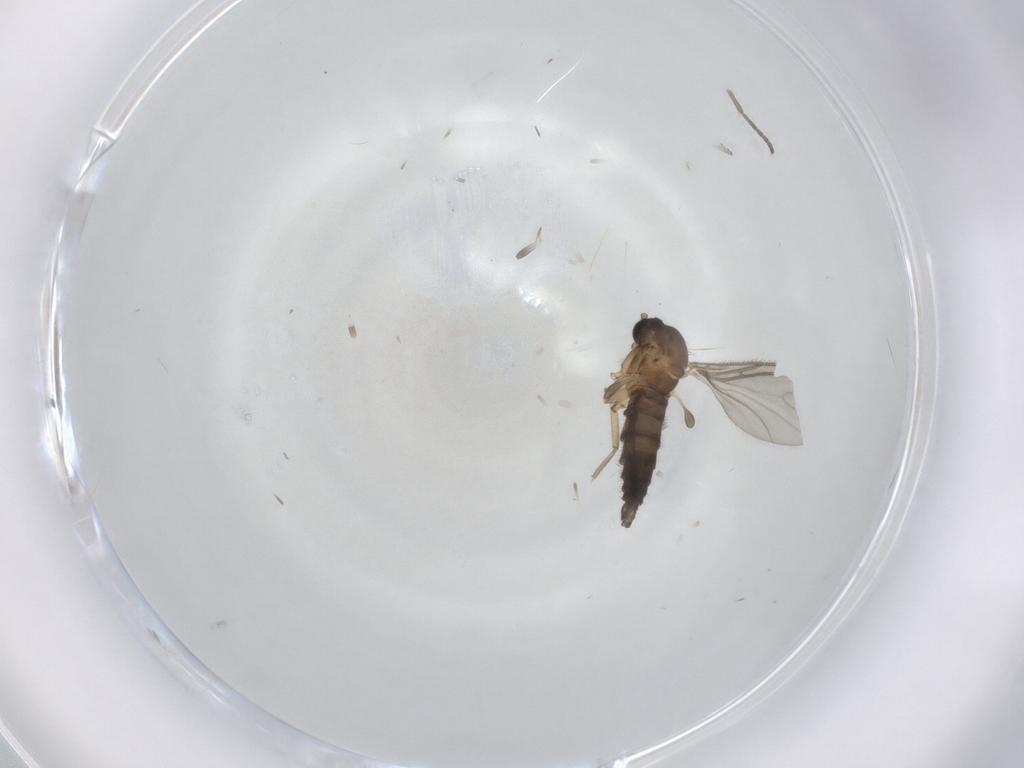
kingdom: Animalia
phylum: Arthropoda
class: Insecta
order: Diptera
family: Sciaridae
